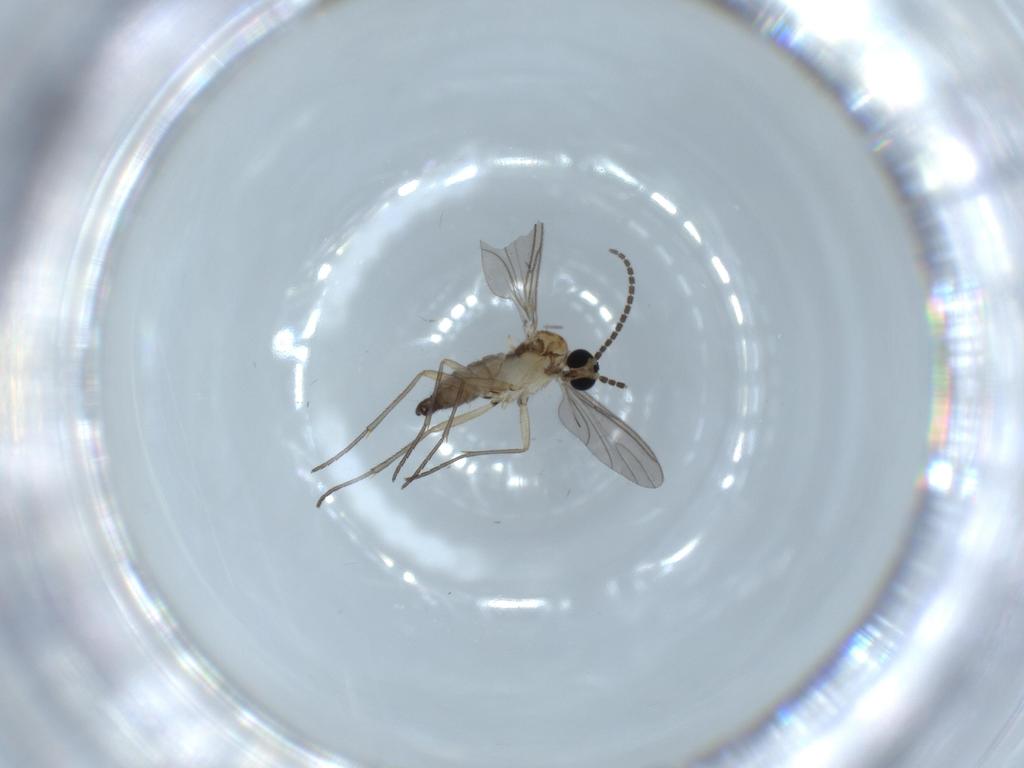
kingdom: Animalia
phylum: Arthropoda
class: Insecta
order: Diptera
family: Sciaridae
